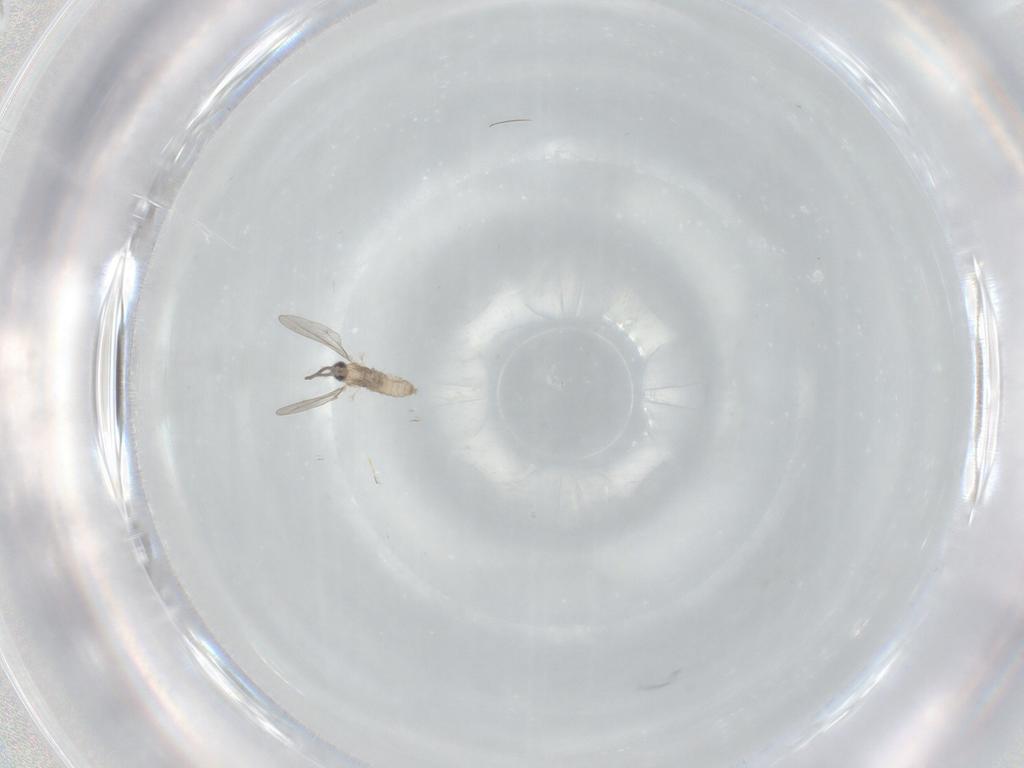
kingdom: Animalia
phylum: Arthropoda
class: Insecta
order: Diptera
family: Cecidomyiidae
